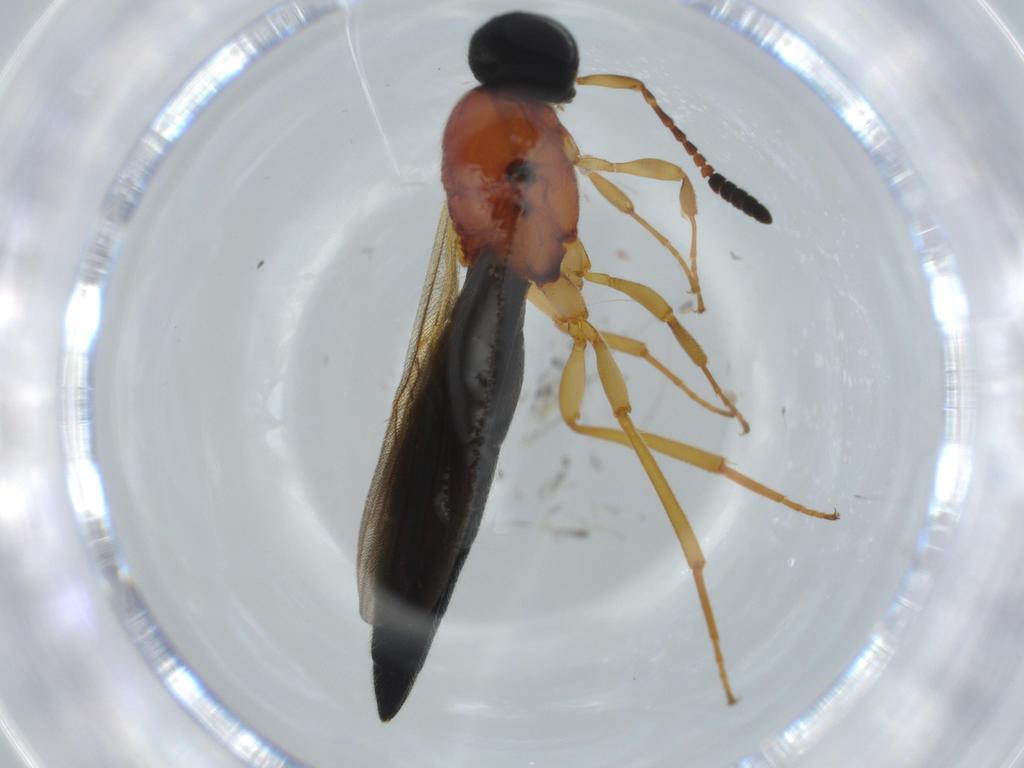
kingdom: Animalia
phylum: Arthropoda
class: Insecta
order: Hymenoptera
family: Scelionidae
